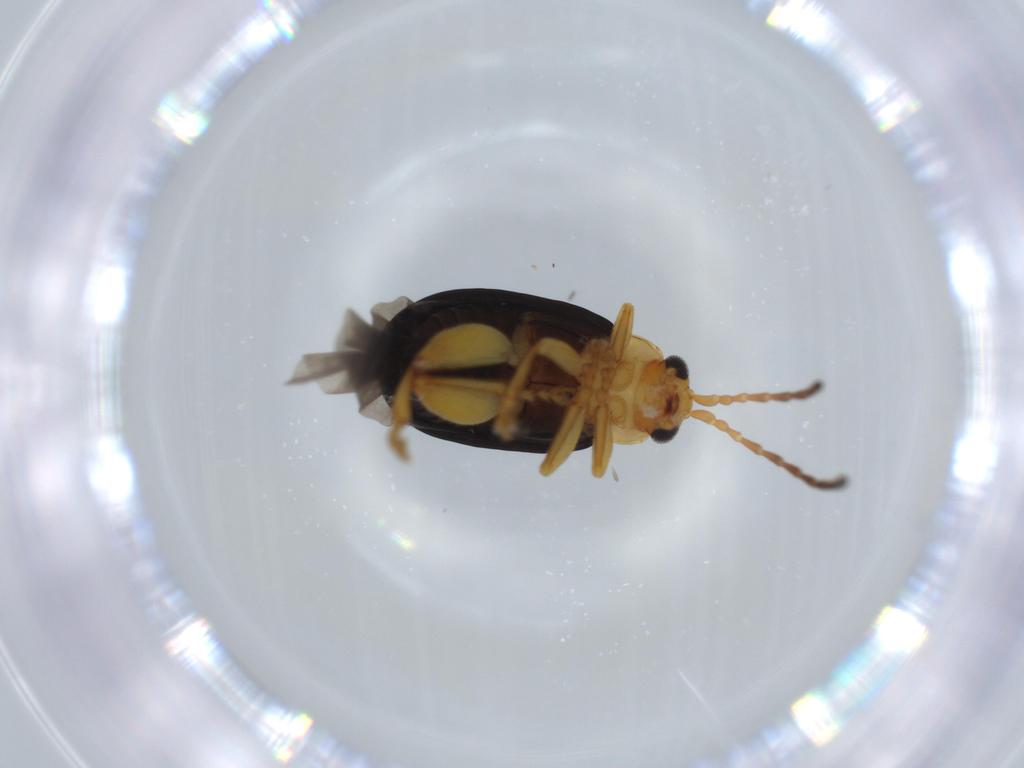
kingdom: Animalia
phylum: Arthropoda
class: Insecta
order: Coleoptera
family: Chrysomelidae
